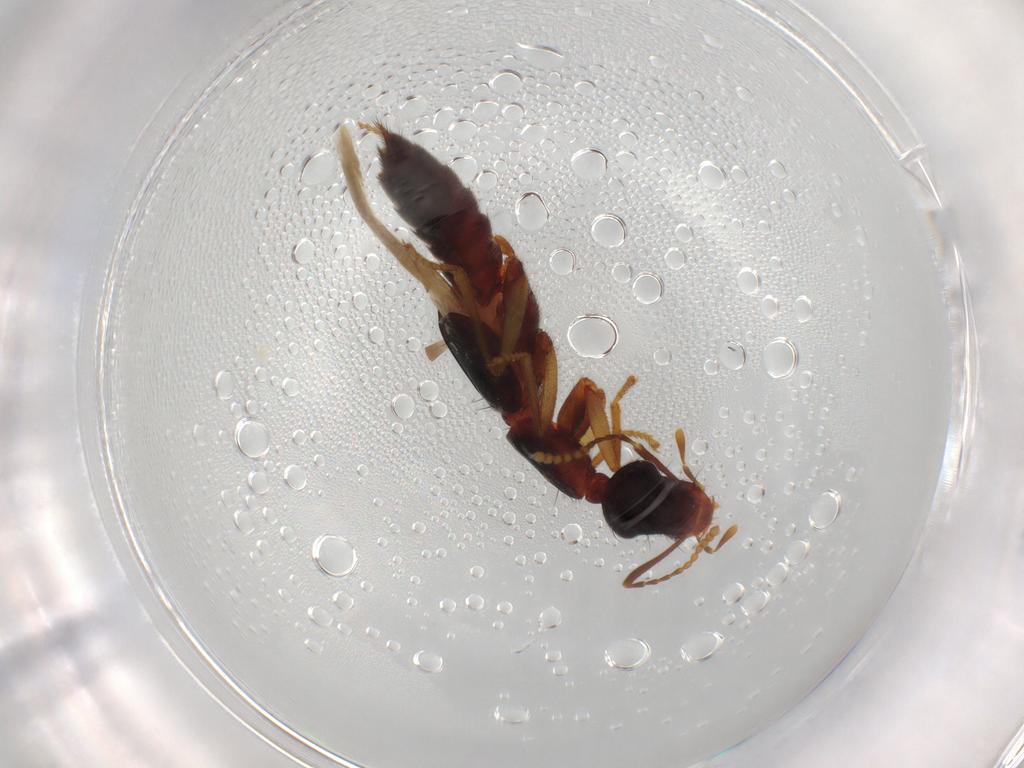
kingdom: Animalia
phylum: Arthropoda
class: Insecta
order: Coleoptera
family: Staphylinidae
